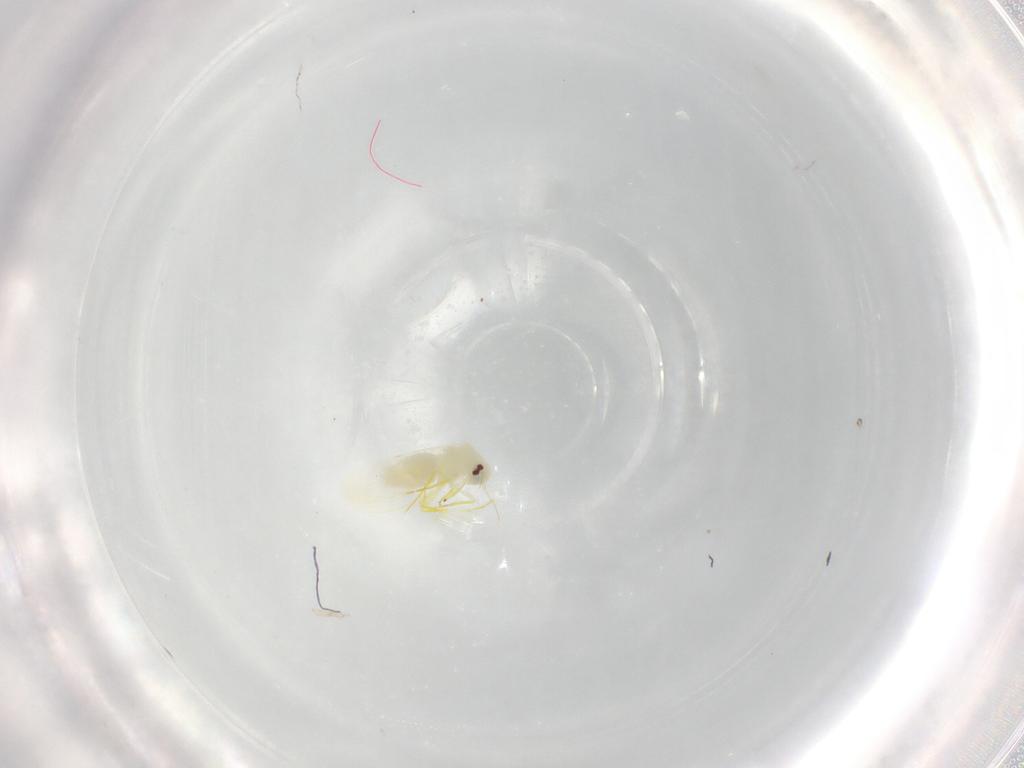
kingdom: Animalia
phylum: Arthropoda
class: Insecta
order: Hemiptera
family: Aleyrodidae
